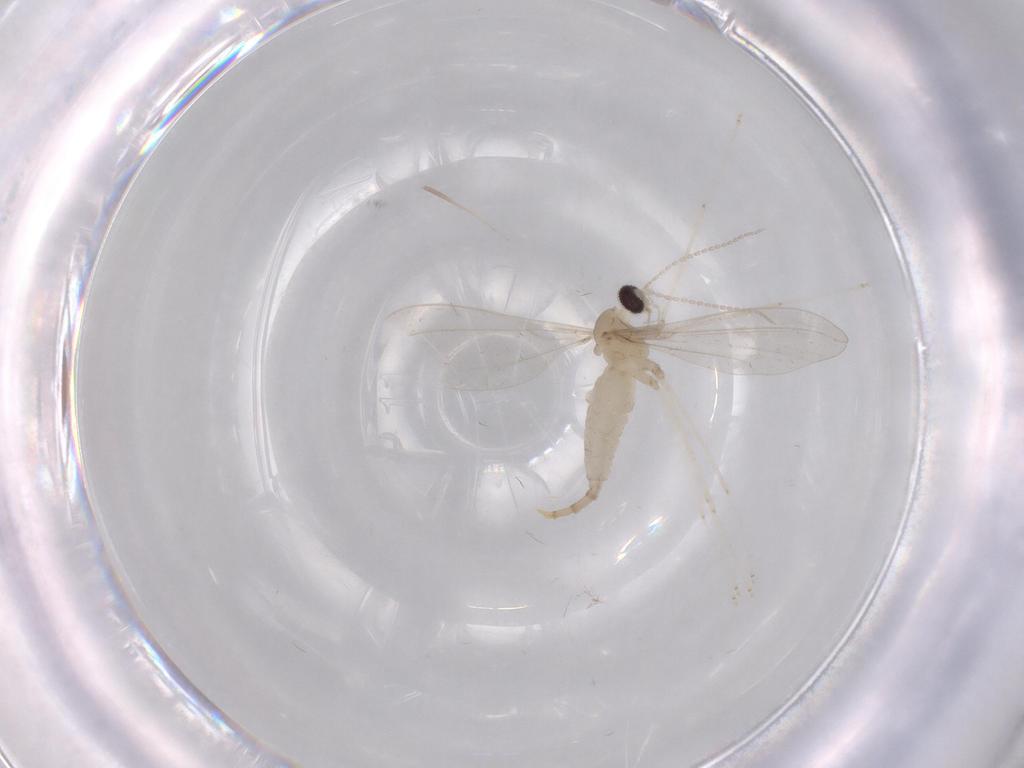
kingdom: Animalia
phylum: Arthropoda
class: Insecta
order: Diptera
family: Cecidomyiidae
